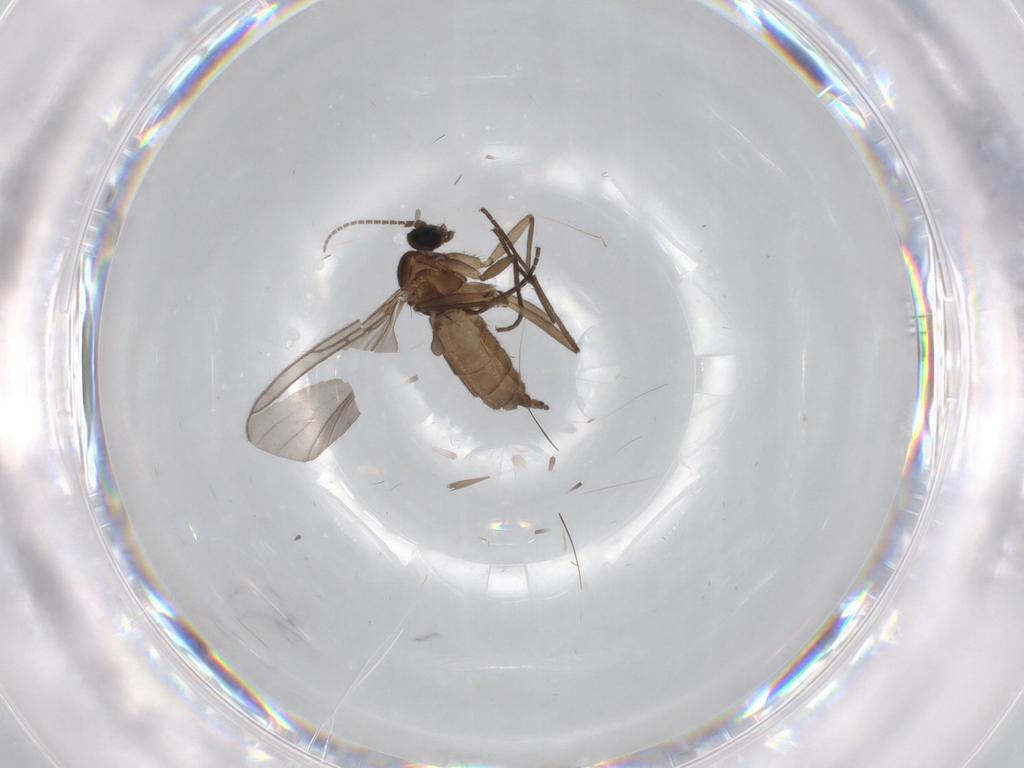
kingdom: Animalia
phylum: Arthropoda
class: Insecta
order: Diptera
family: Sciaridae
